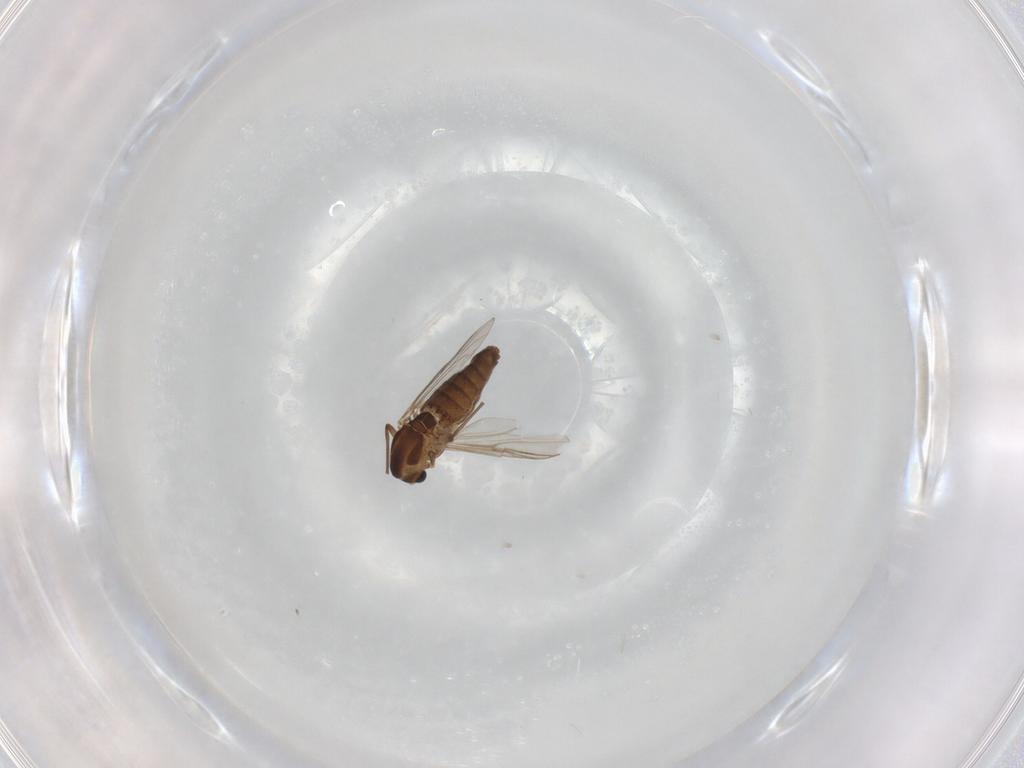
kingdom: Animalia
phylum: Arthropoda
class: Insecta
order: Diptera
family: Chironomidae
